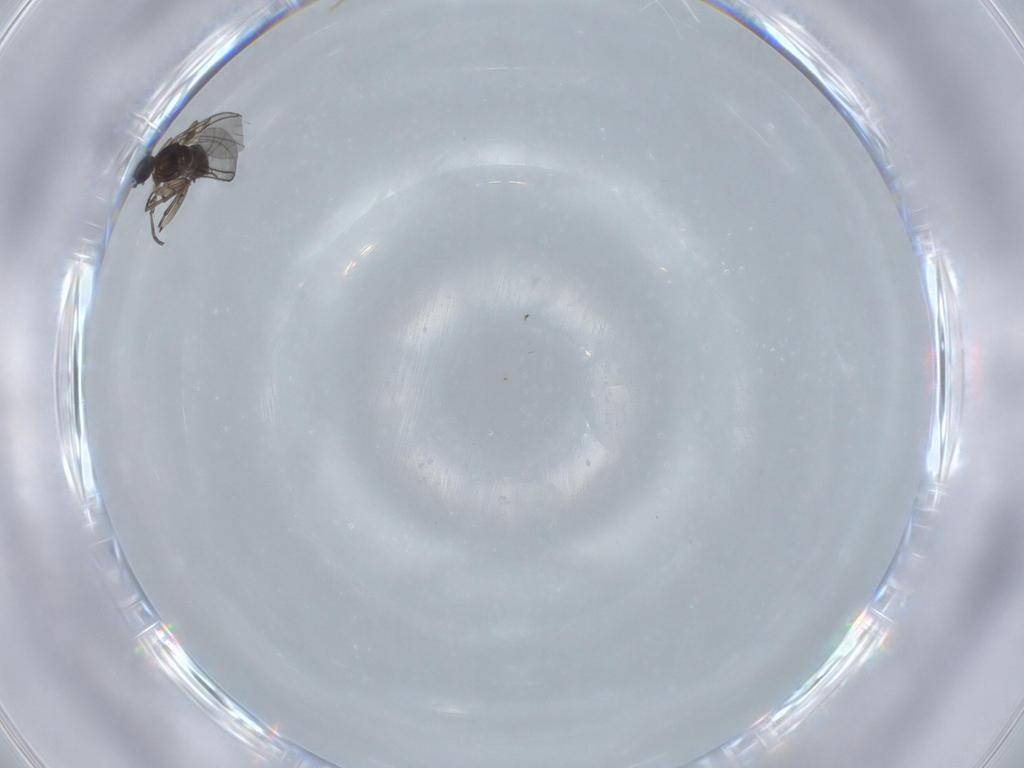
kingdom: Animalia
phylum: Arthropoda
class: Insecta
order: Diptera
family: Sciaridae
